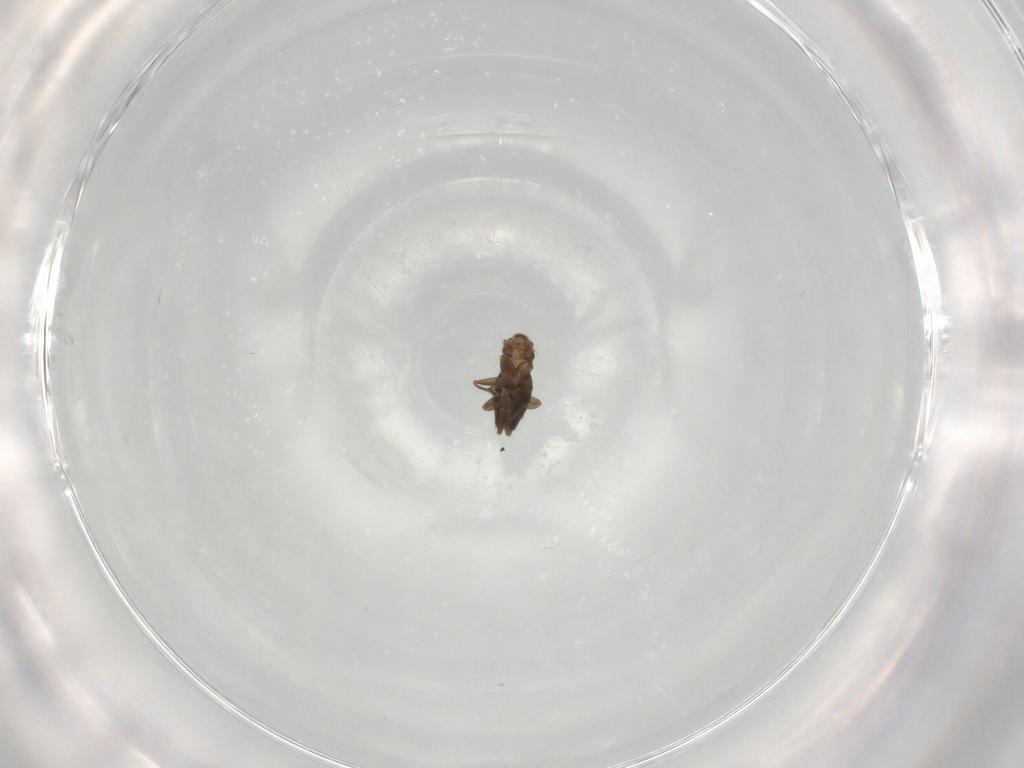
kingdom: Animalia
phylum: Arthropoda
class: Insecta
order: Diptera
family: Phoridae
